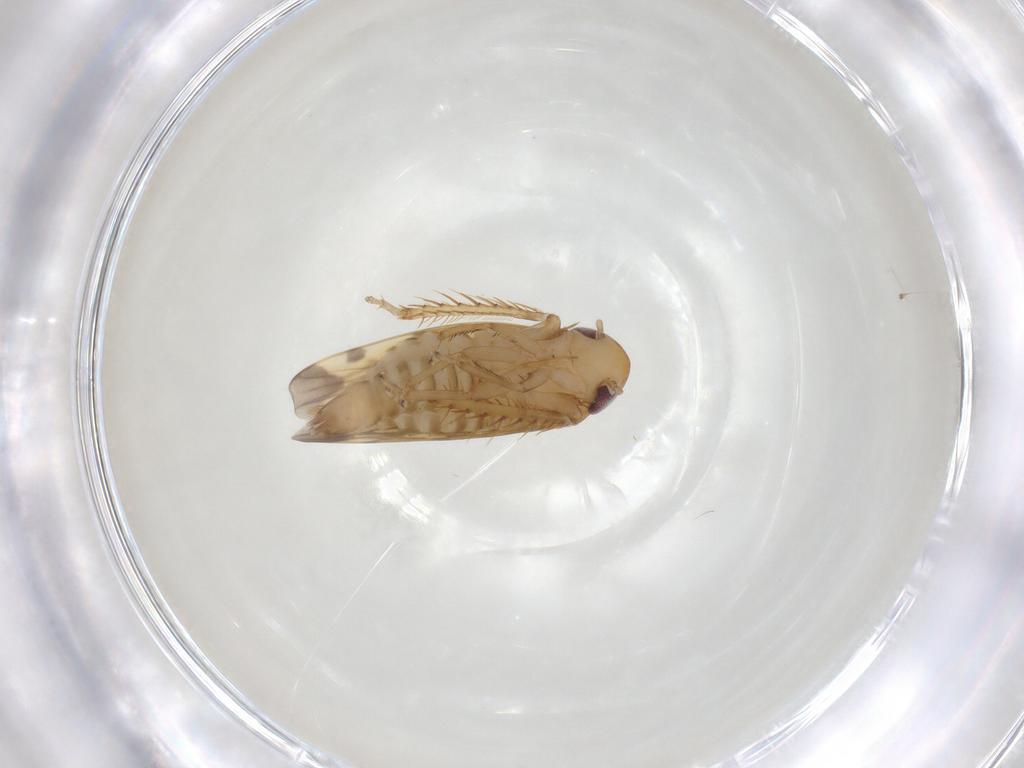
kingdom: Animalia
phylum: Arthropoda
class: Insecta
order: Hemiptera
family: Cicadellidae
